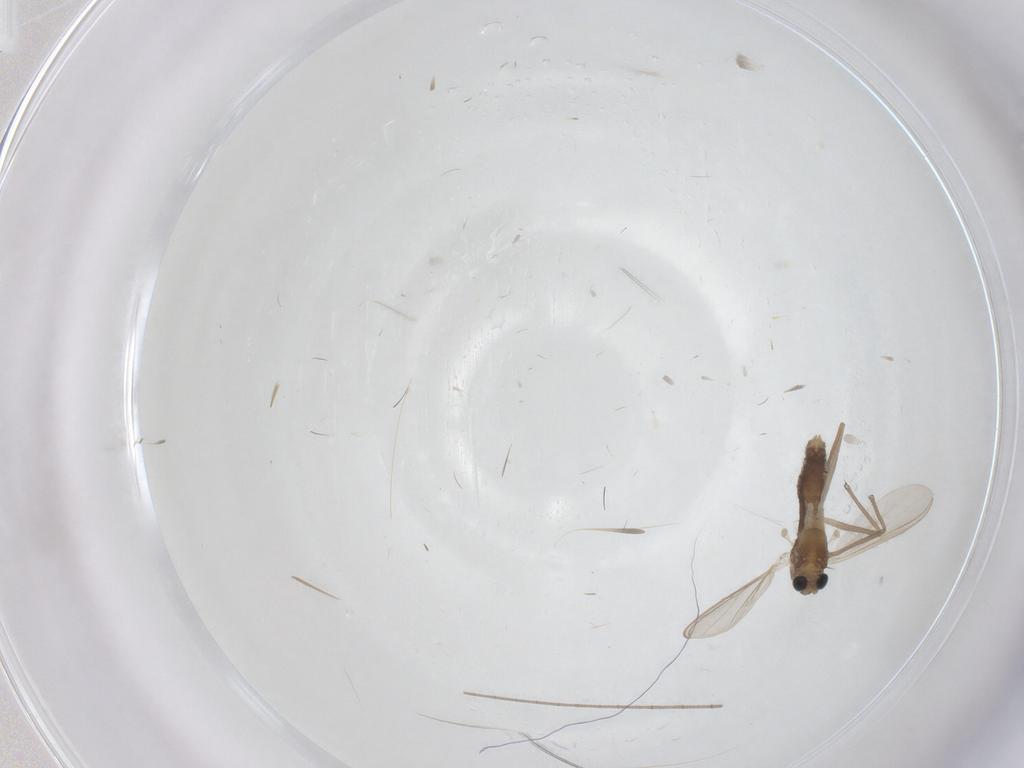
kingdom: Animalia
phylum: Arthropoda
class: Insecta
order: Diptera
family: Chironomidae
